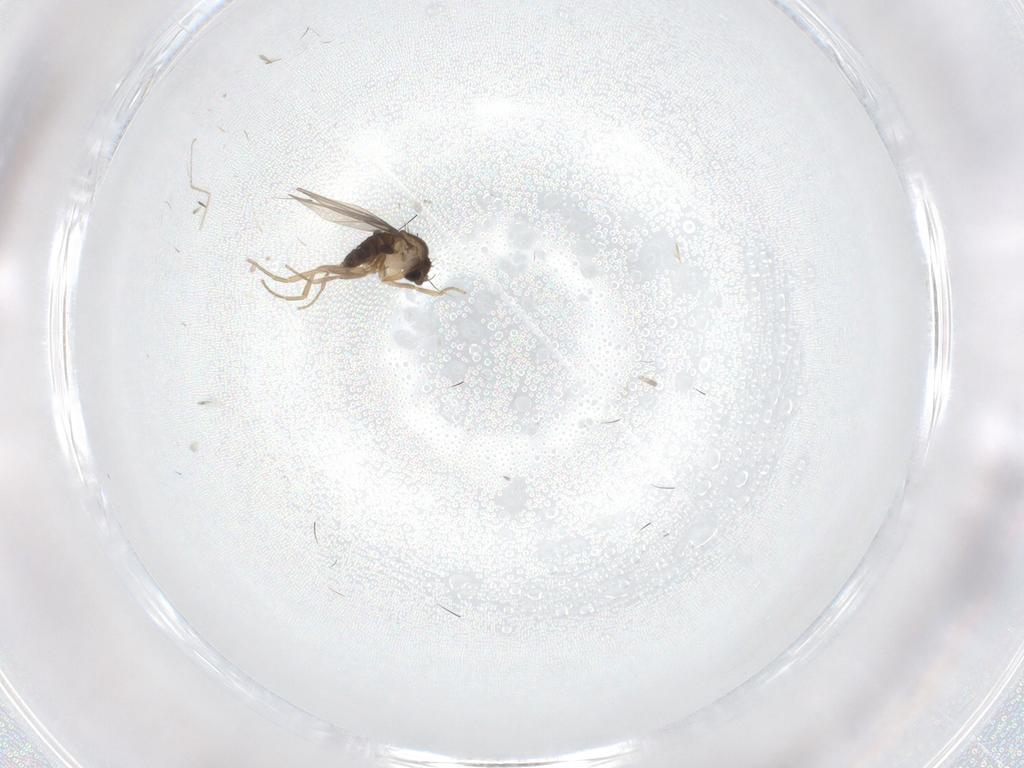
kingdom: Animalia
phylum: Arthropoda
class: Insecta
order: Diptera
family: Phoridae
